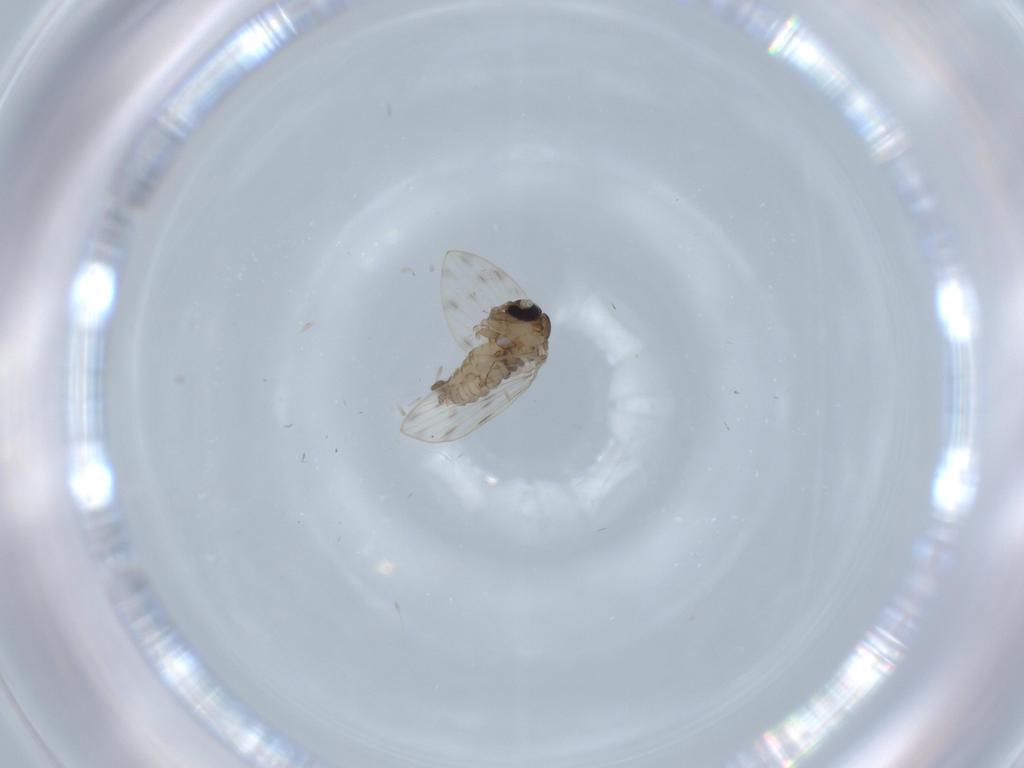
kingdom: Animalia
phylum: Arthropoda
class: Insecta
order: Diptera
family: Psychodidae
